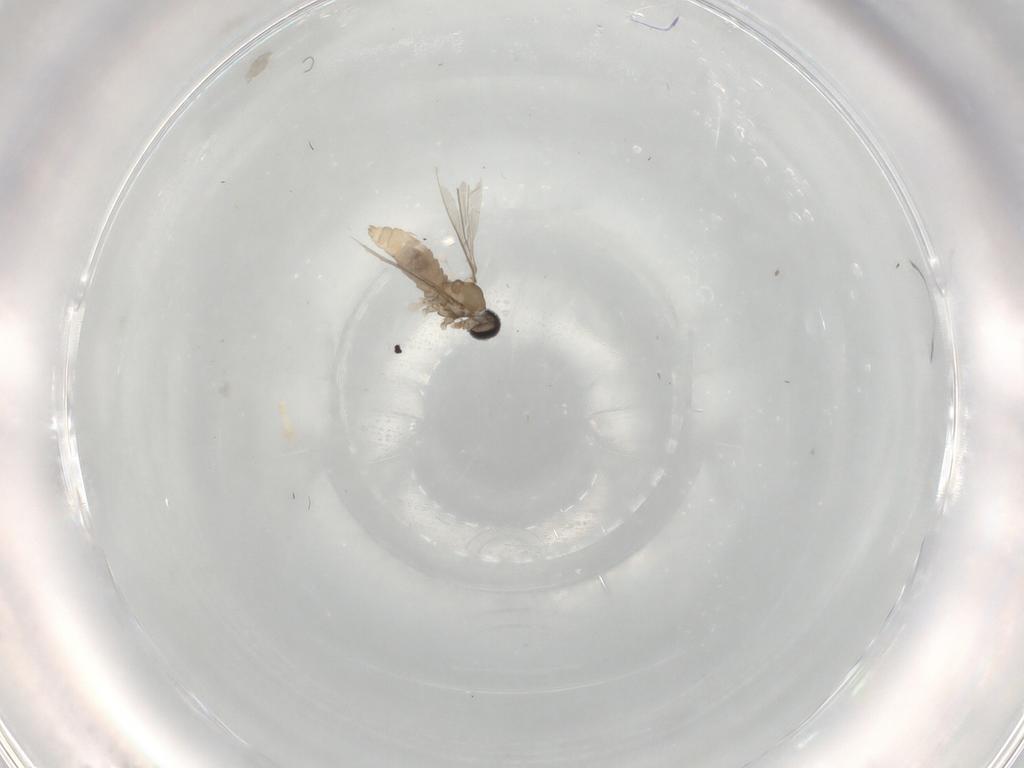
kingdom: Animalia
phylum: Arthropoda
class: Insecta
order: Diptera
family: Cecidomyiidae
